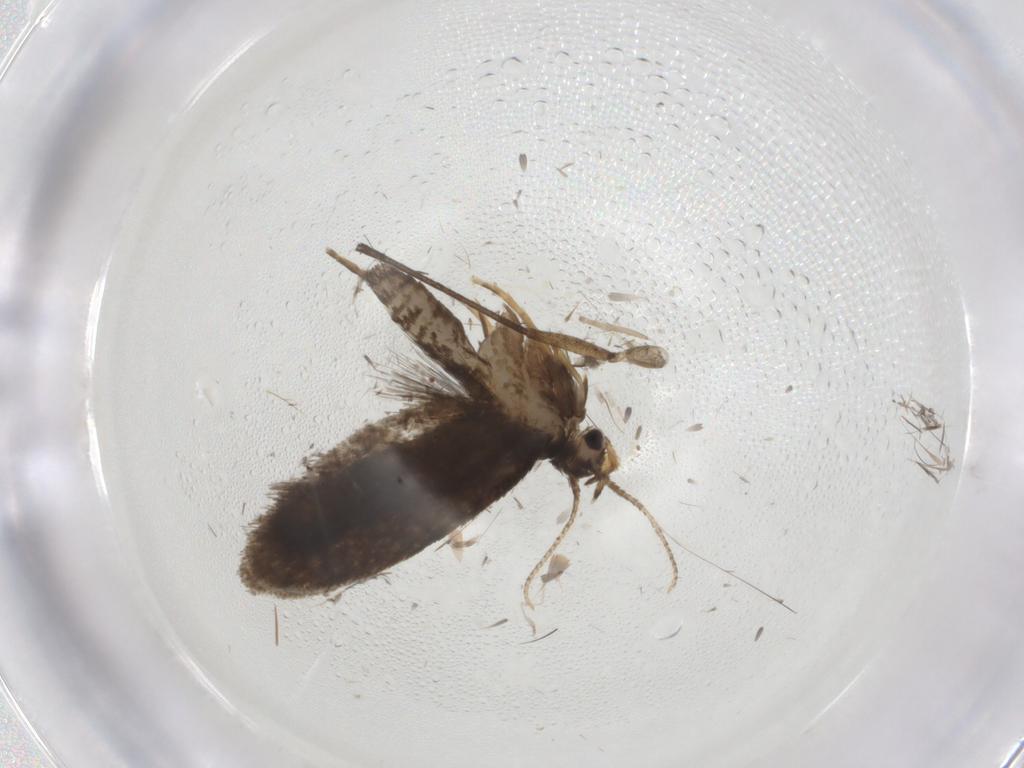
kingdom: Animalia
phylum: Arthropoda
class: Insecta
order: Lepidoptera
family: Psychidae
